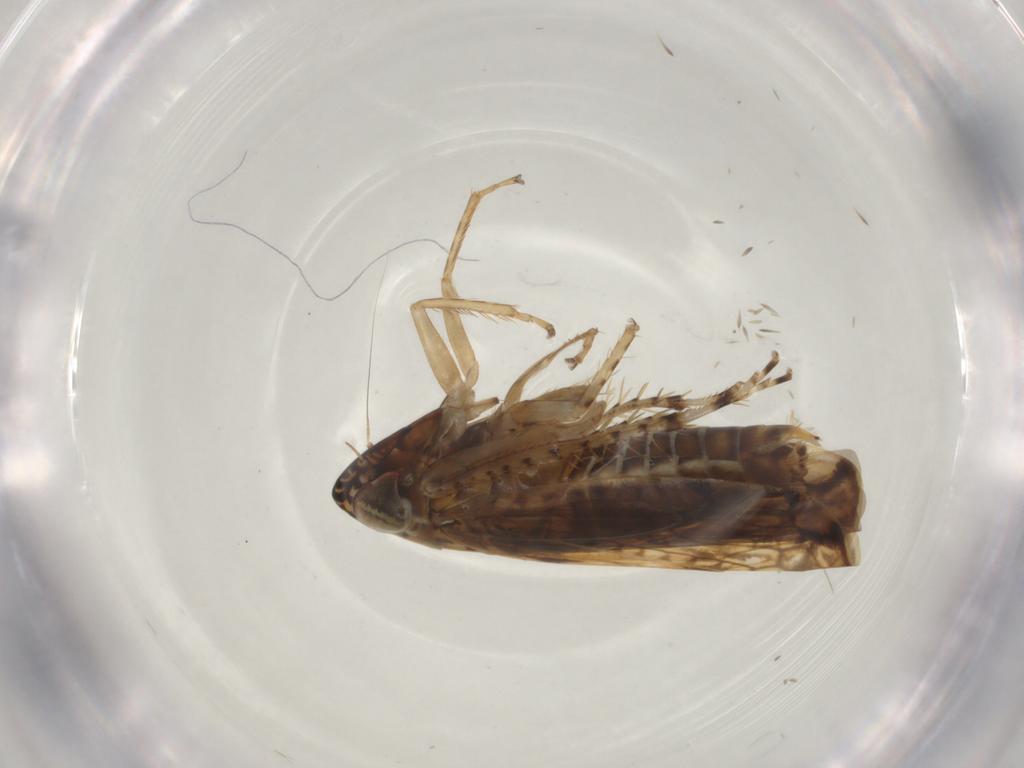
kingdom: Animalia
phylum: Arthropoda
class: Insecta
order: Hemiptera
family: Cicadellidae
